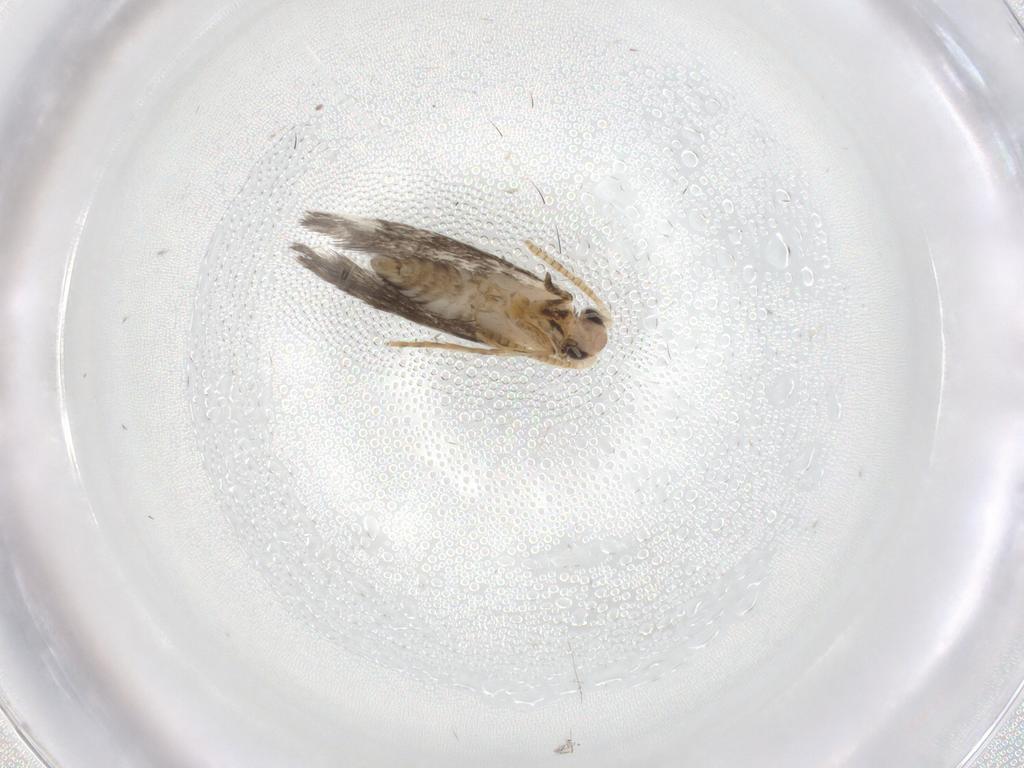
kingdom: Animalia
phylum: Arthropoda
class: Insecta
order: Lepidoptera
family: Tineidae
